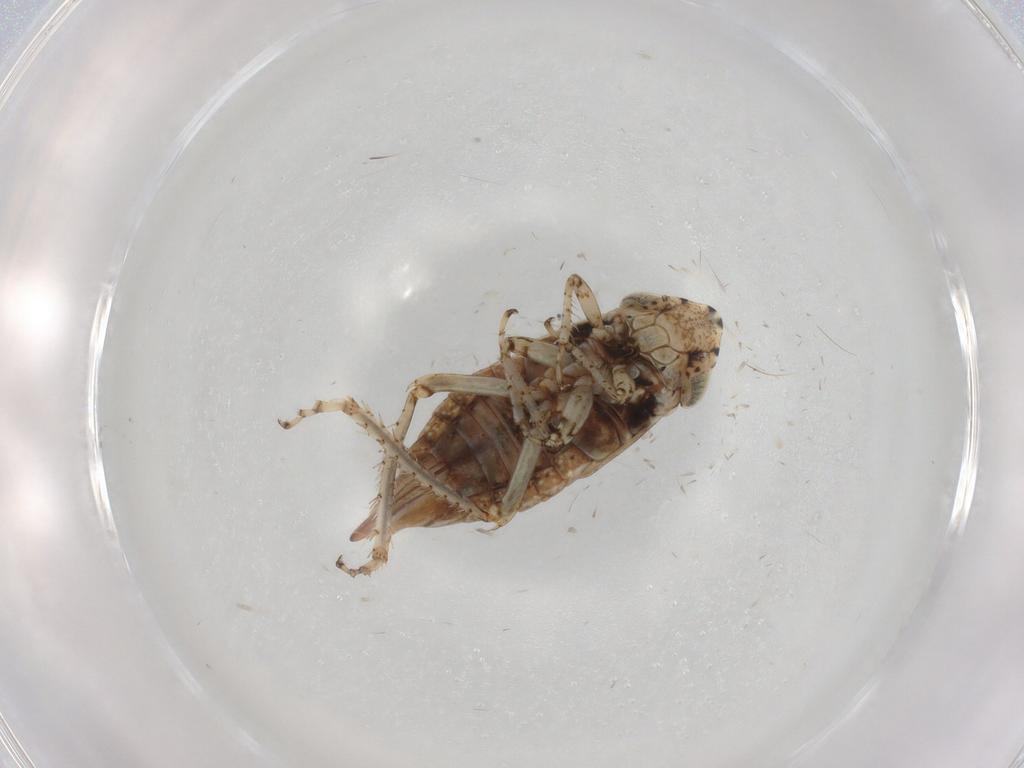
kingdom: Animalia
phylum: Arthropoda
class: Insecta
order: Hemiptera
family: Cicadellidae
